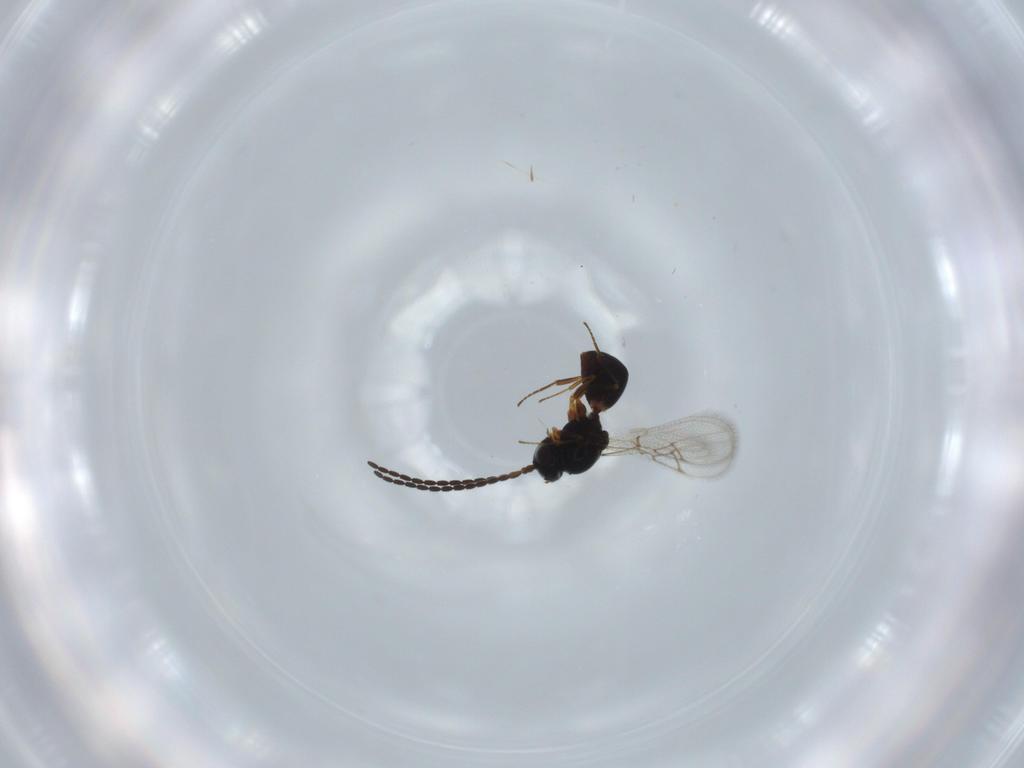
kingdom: Animalia
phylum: Arthropoda
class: Insecta
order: Hymenoptera
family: Figitidae
